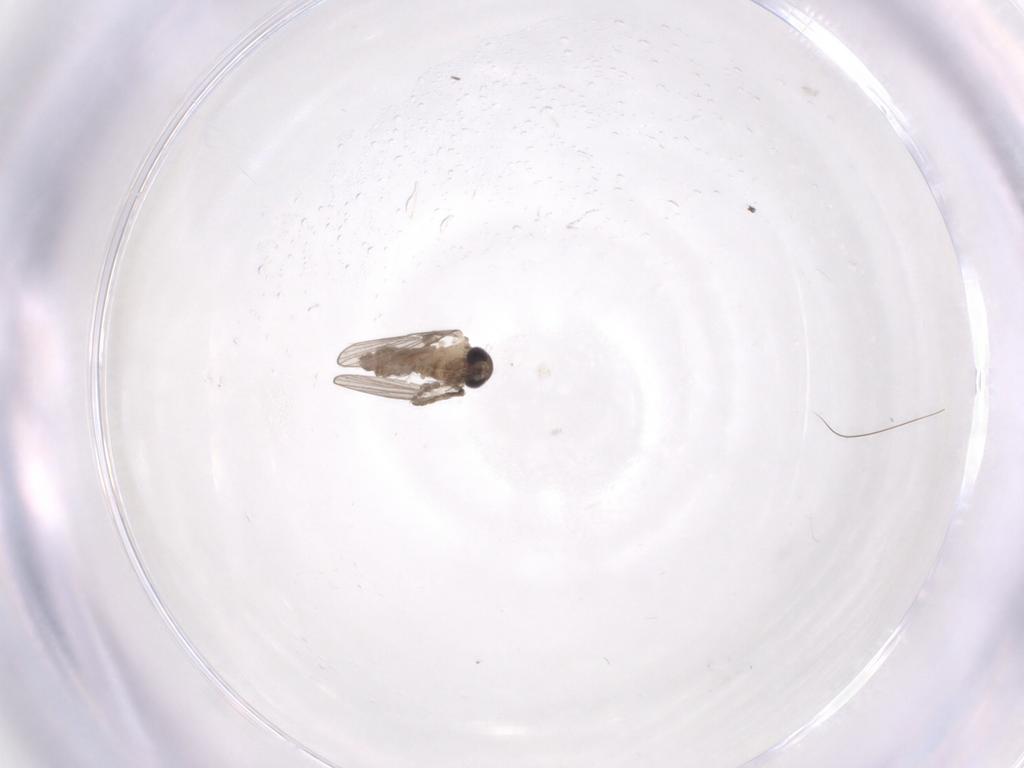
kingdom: Animalia
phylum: Arthropoda
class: Insecta
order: Diptera
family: Psychodidae
